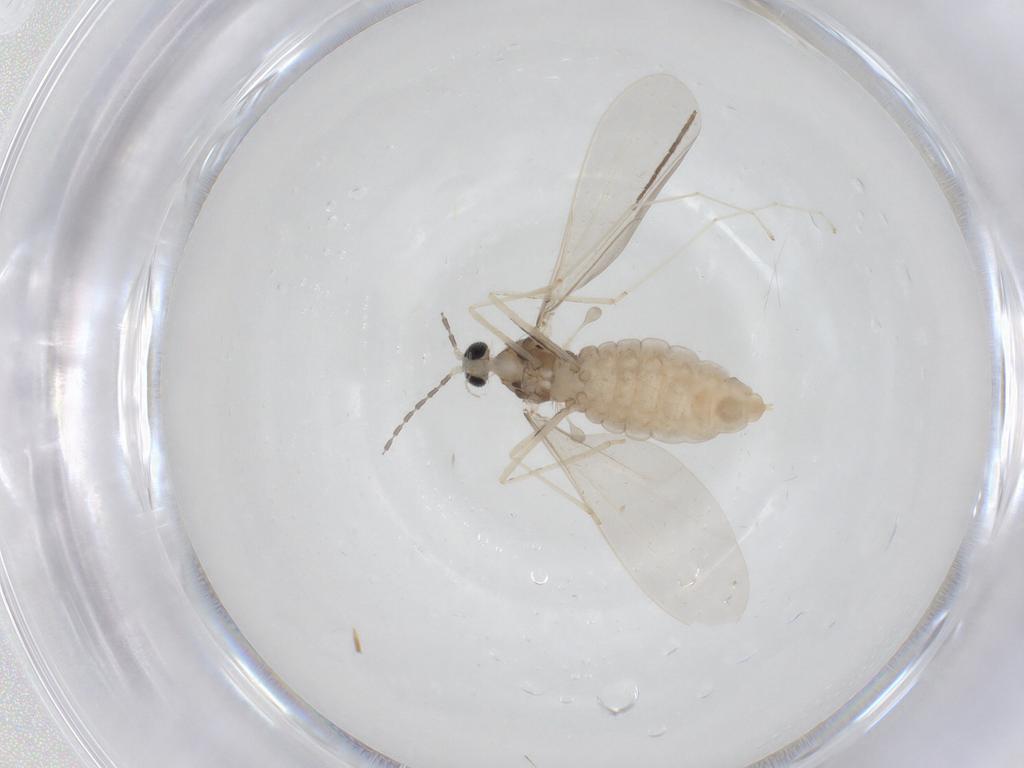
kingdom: Animalia
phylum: Arthropoda
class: Insecta
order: Diptera
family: Cecidomyiidae
